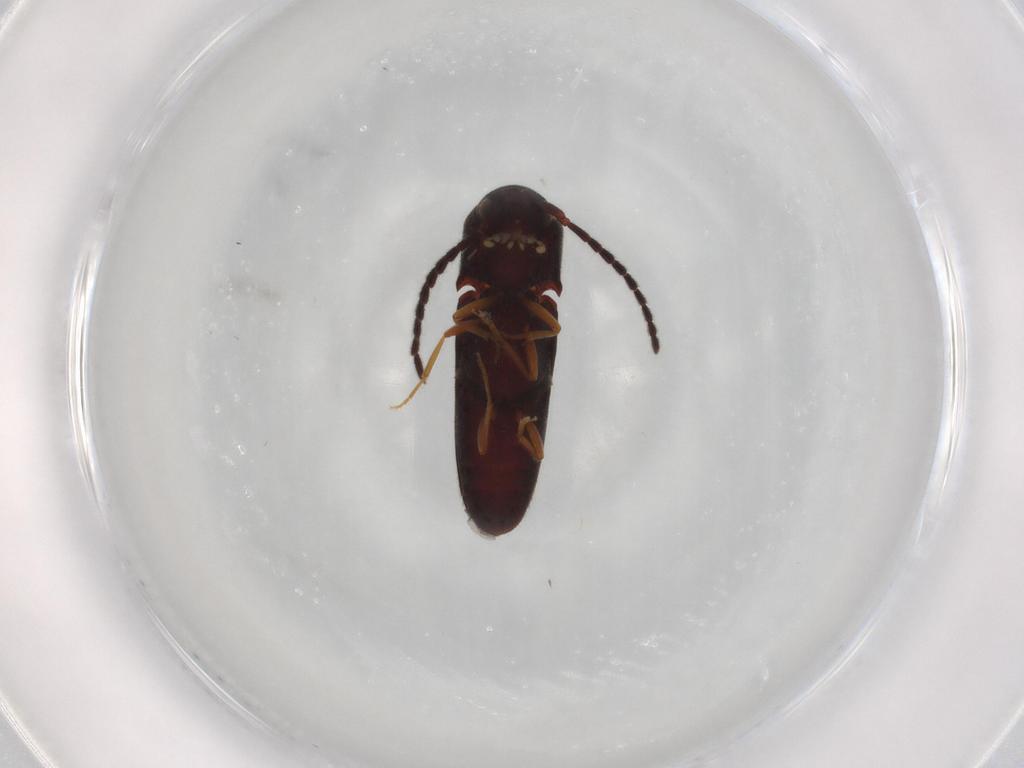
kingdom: Animalia
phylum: Arthropoda
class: Insecta
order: Coleoptera
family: Eucnemidae
